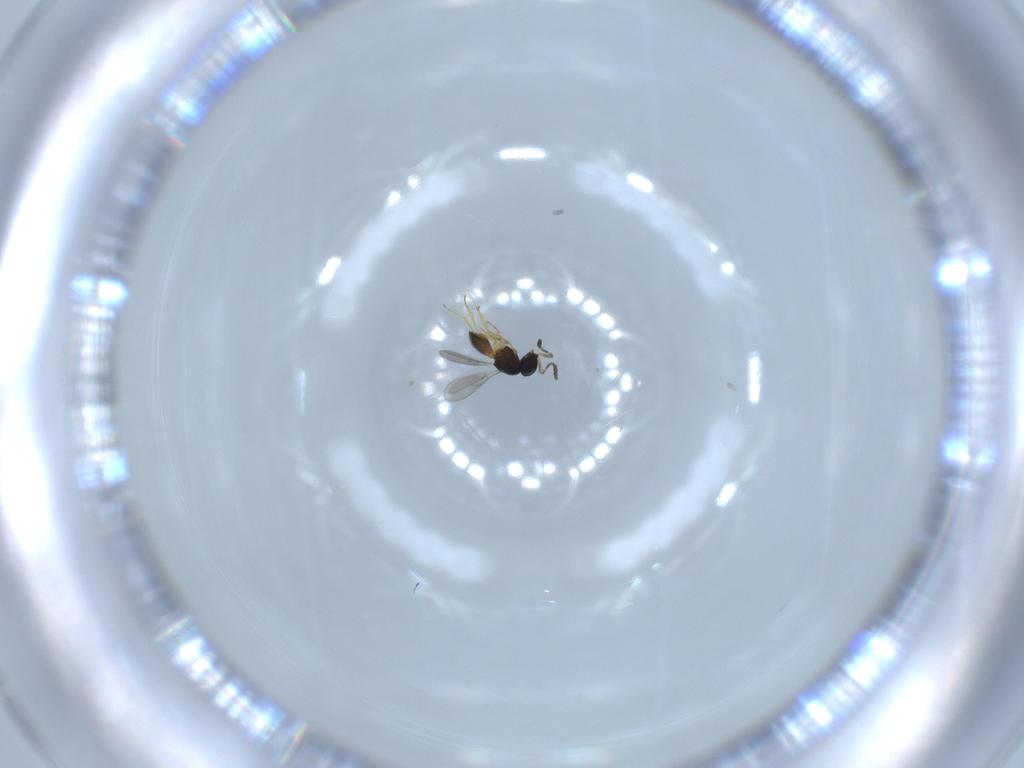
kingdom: Animalia
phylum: Arthropoda
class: Insecta
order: Hymenoptera
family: Scelionidae
